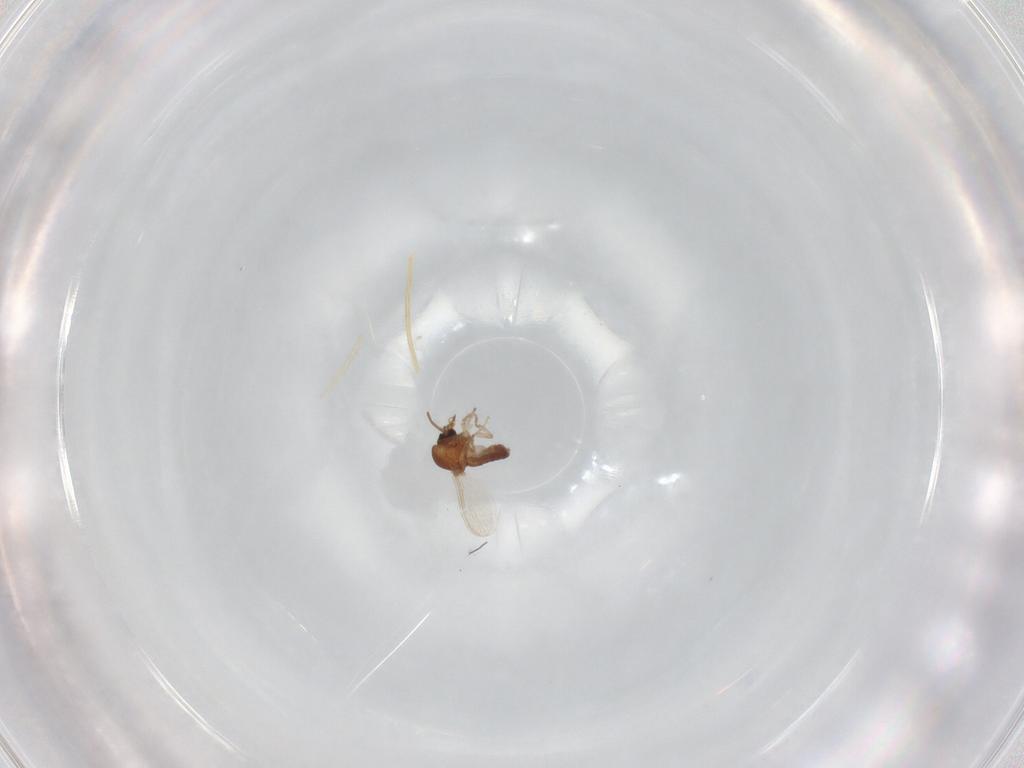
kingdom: Animalia
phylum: Arthropoda
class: Insecta
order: Diptera
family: Ceratopogonidae
